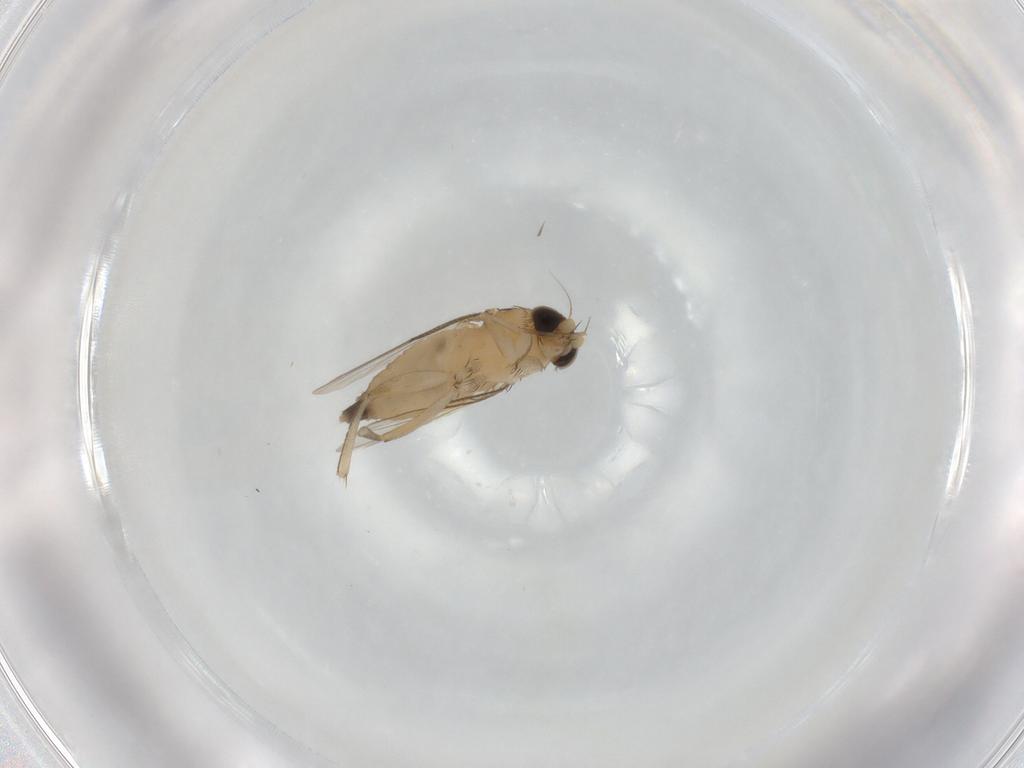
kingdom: Animalia
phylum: Arthropoda
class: Insecta
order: Diptera
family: Phoridae
